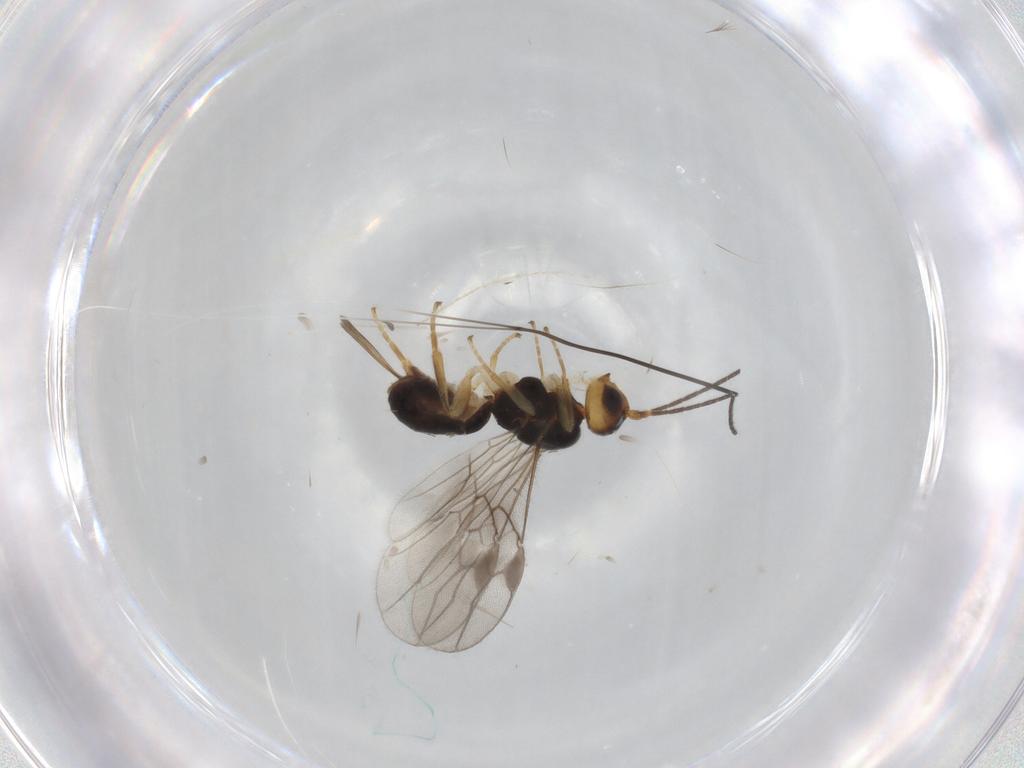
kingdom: Animalia
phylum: Arthropoda
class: Insecta
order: Hymenoptera
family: Braconidae
